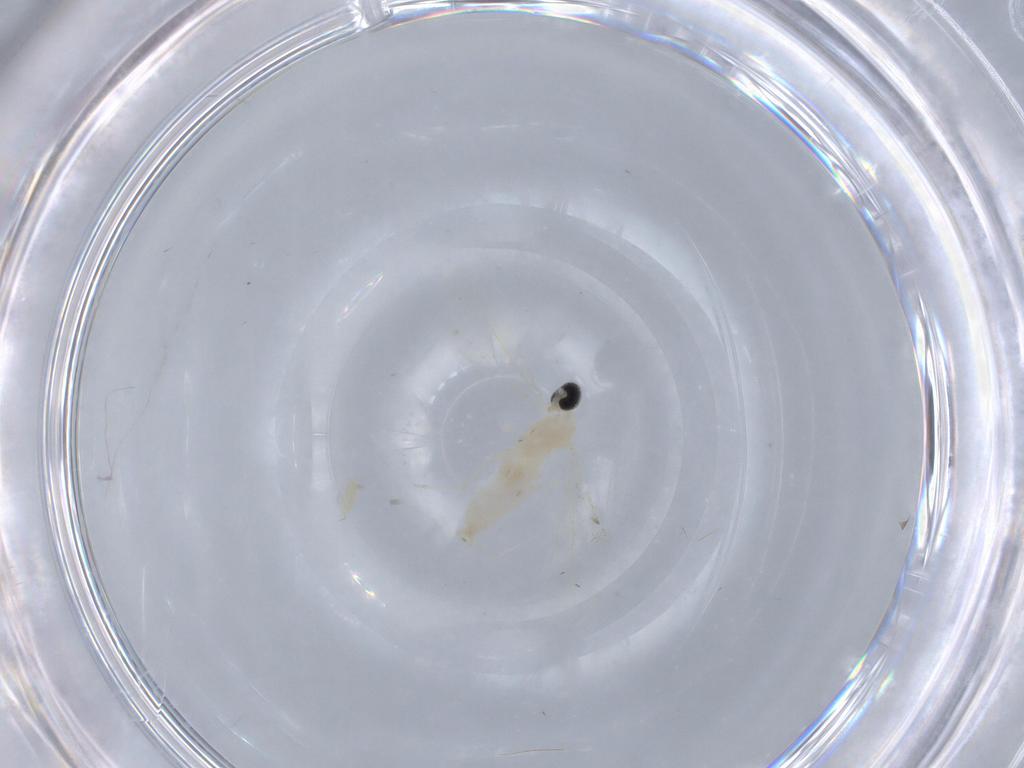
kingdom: Animalia
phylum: Arthropoda
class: Insecta
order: Diptera
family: Cecidomyiidae
